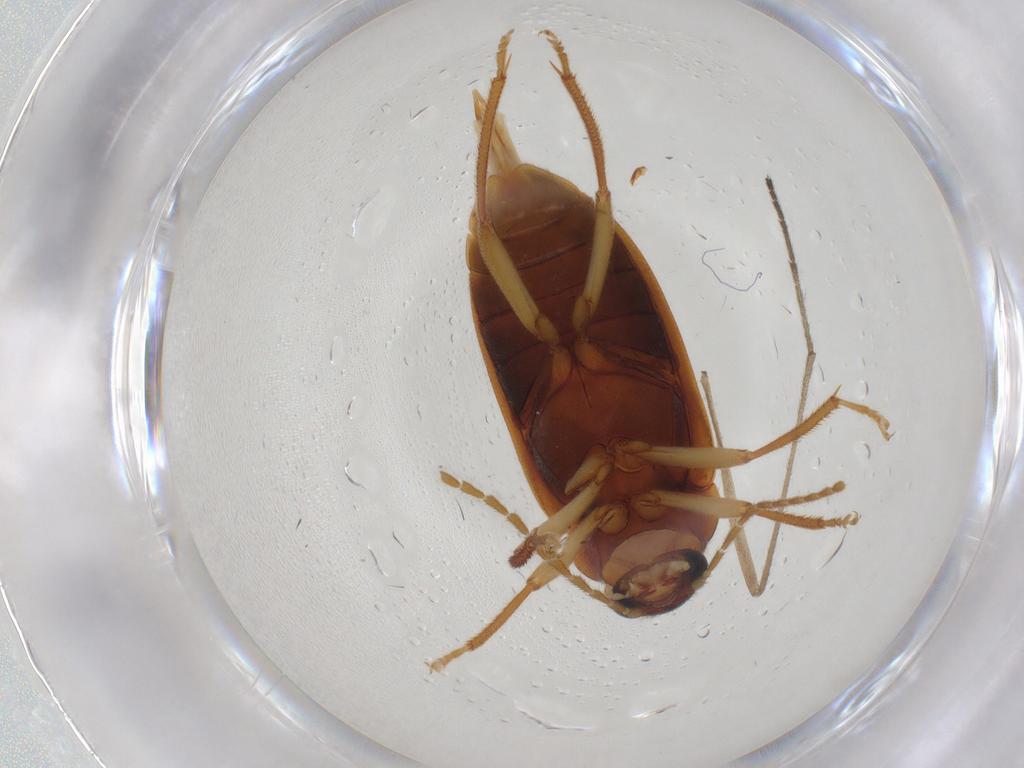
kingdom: Animalia
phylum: Arthropoda
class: Insecta
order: Coleoptera
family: Ptilodactylidae
